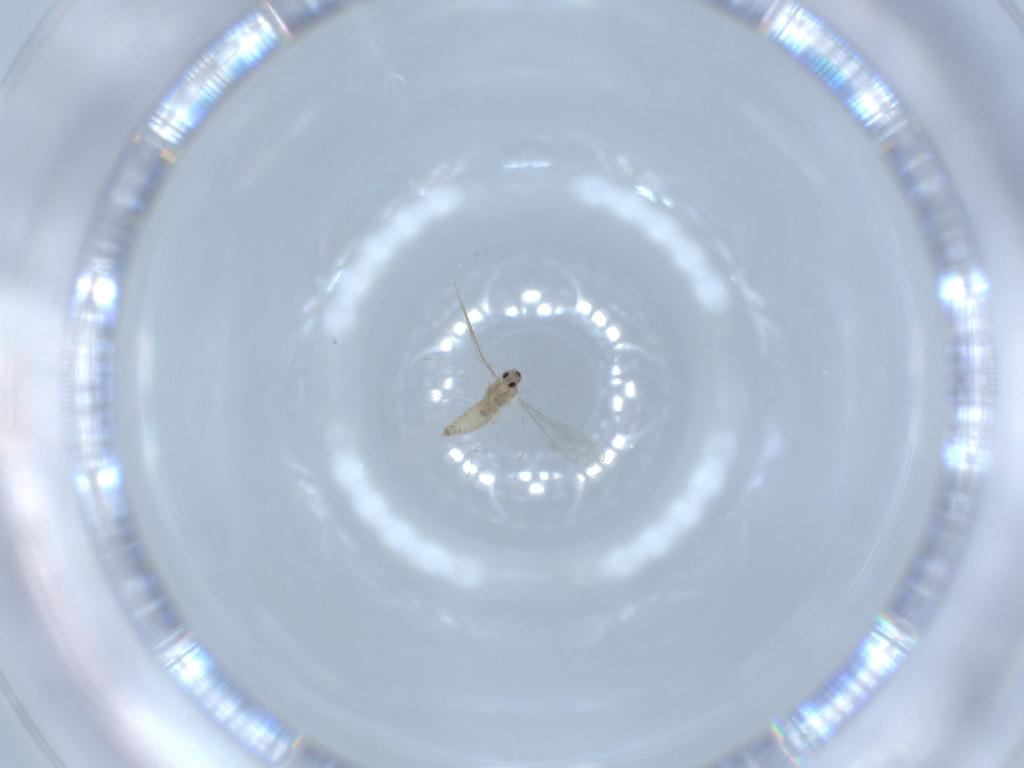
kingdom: Animalia
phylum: Arthropoda
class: Insecta
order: Diptera
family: Cecidomyiidae
